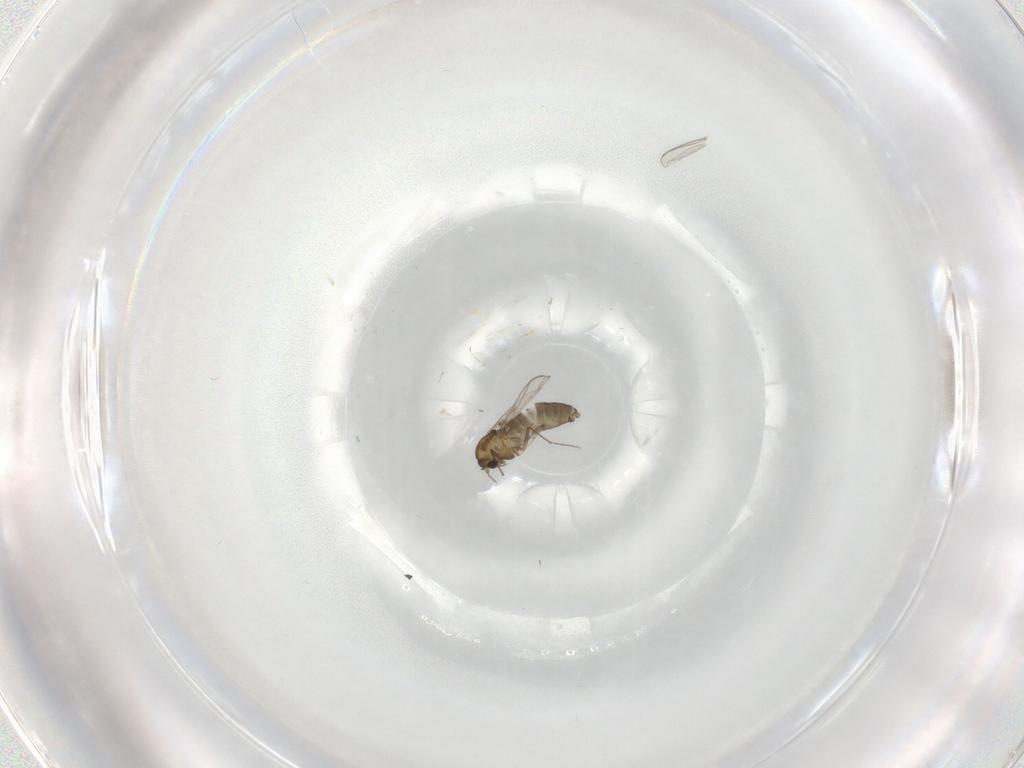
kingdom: Animalia
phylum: Arthropoda
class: Insecta
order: Diptera
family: Chironomidae
